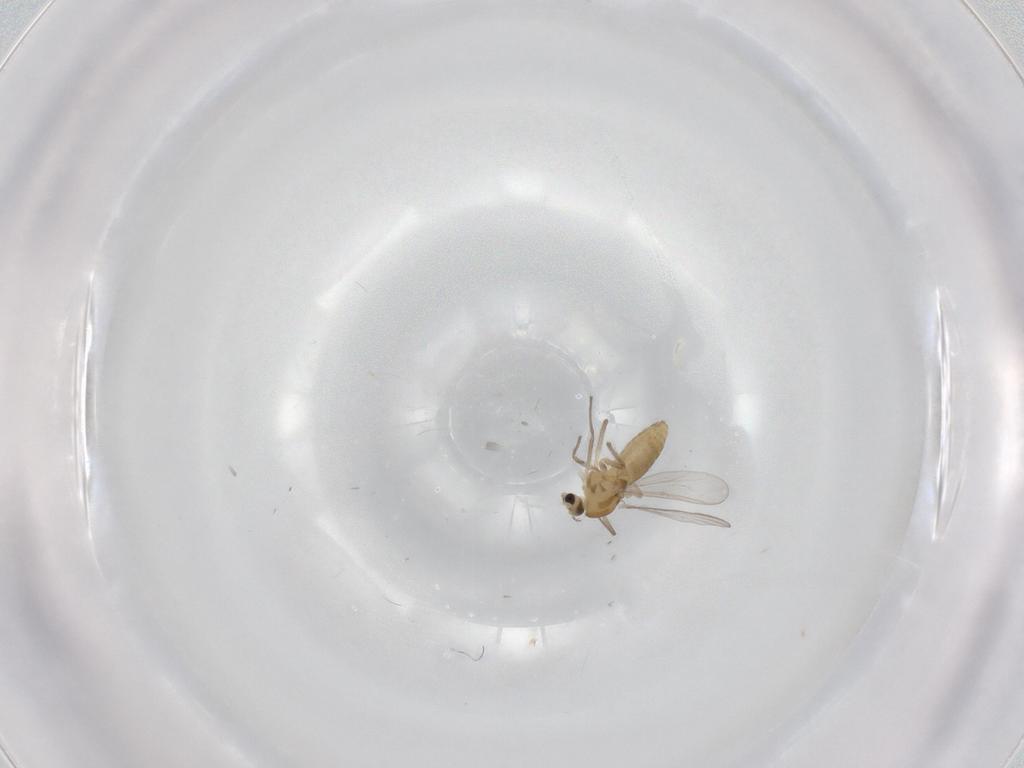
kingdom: Animalia
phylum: Arthropoda
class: Insecta
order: Diptera
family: Chironomidae
